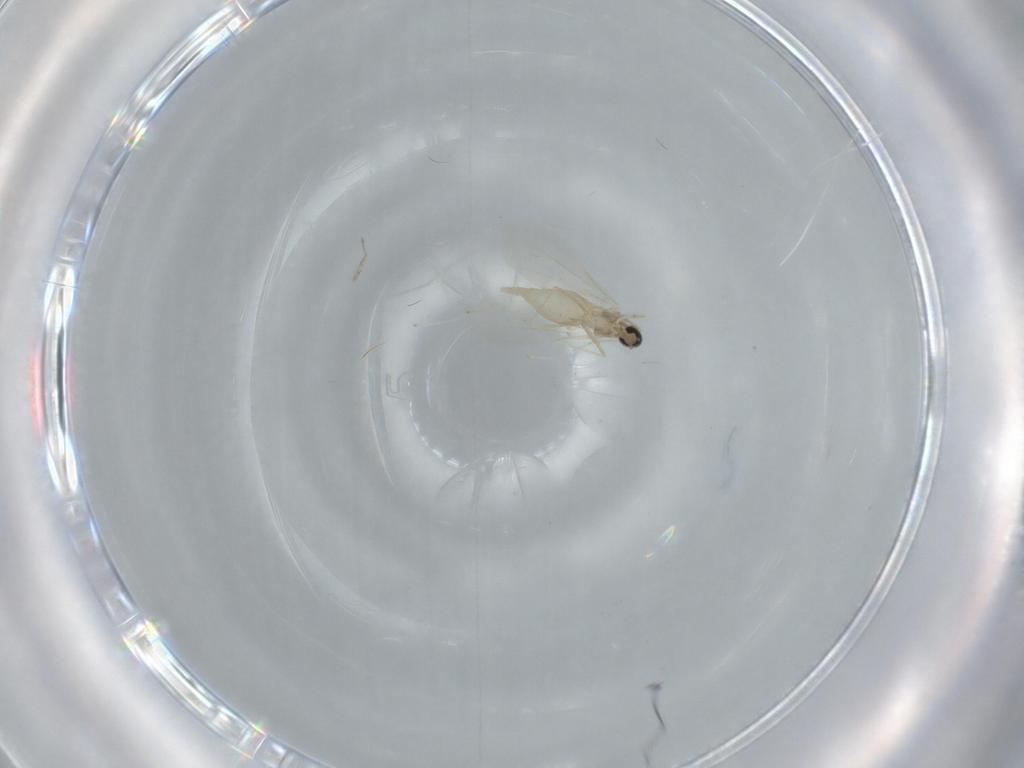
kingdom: Animalia
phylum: Arthropoda
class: Insecta
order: Diptera
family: Cecidomyiidae
